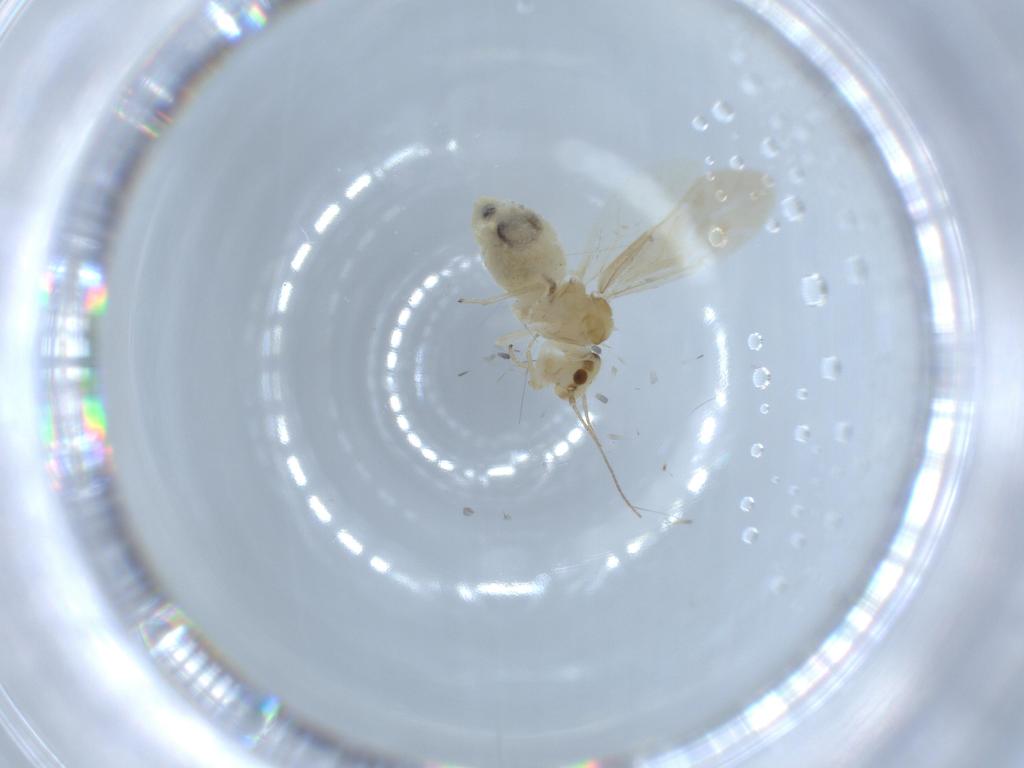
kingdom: Animalia
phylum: Arthropoda
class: Insecta
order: Psocodea
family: Caeciliusidae
